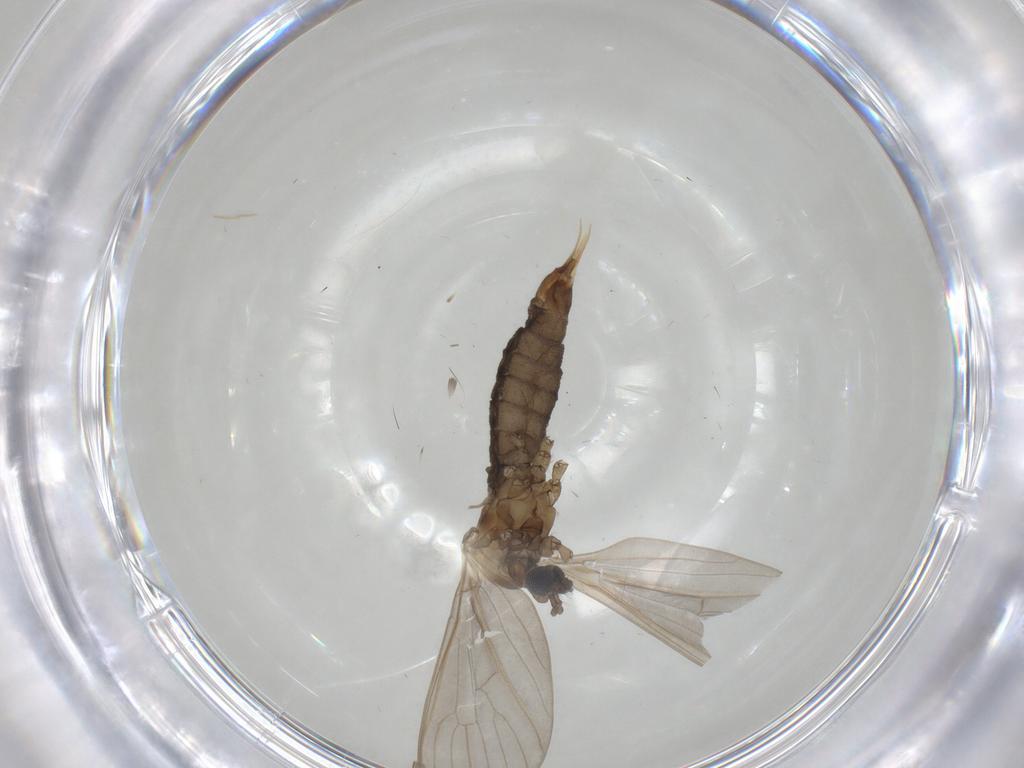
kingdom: Animalia
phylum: Arthropoda
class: Insecta
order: Diptera
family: Limoniidae
